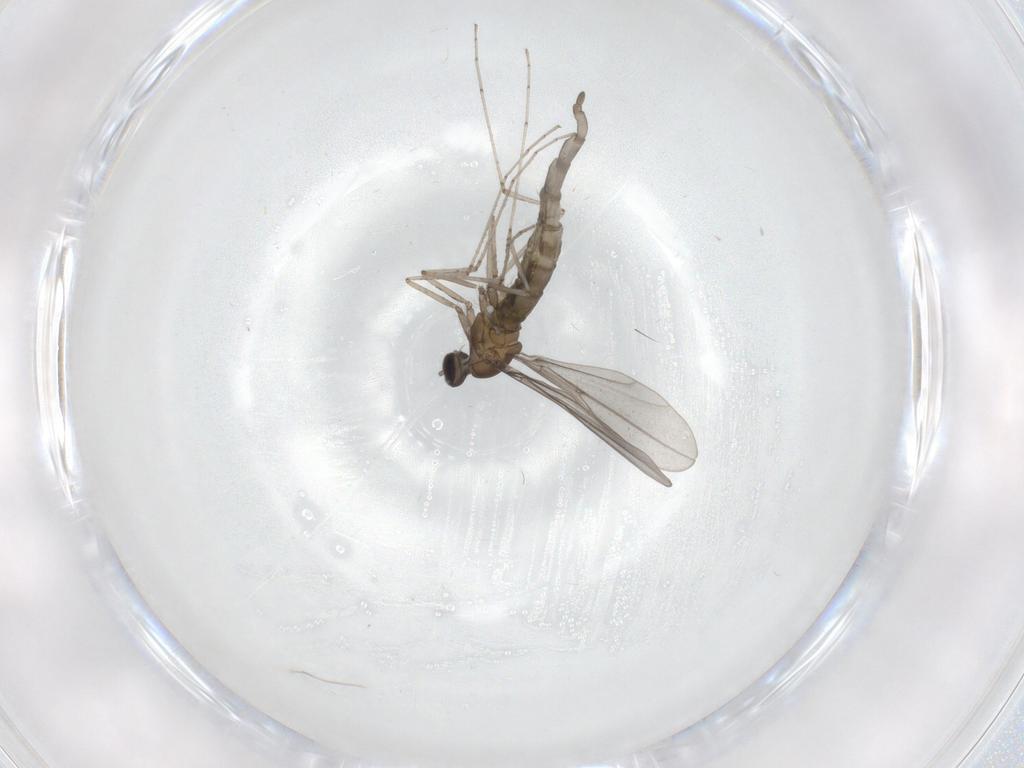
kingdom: Animalia
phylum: Arthropoda
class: Insecta
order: Diptera
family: Cecidomyiidae
